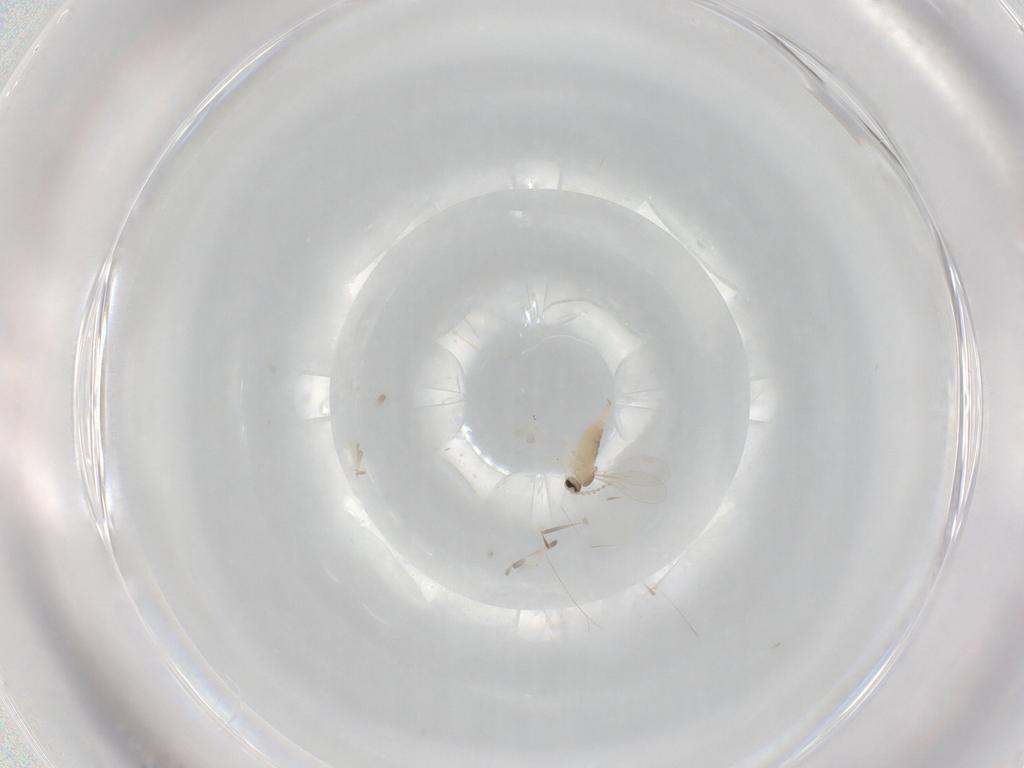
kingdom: Animalia
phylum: Arthropoda
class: Insecta
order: Diptera
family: Cecidomyiidae
